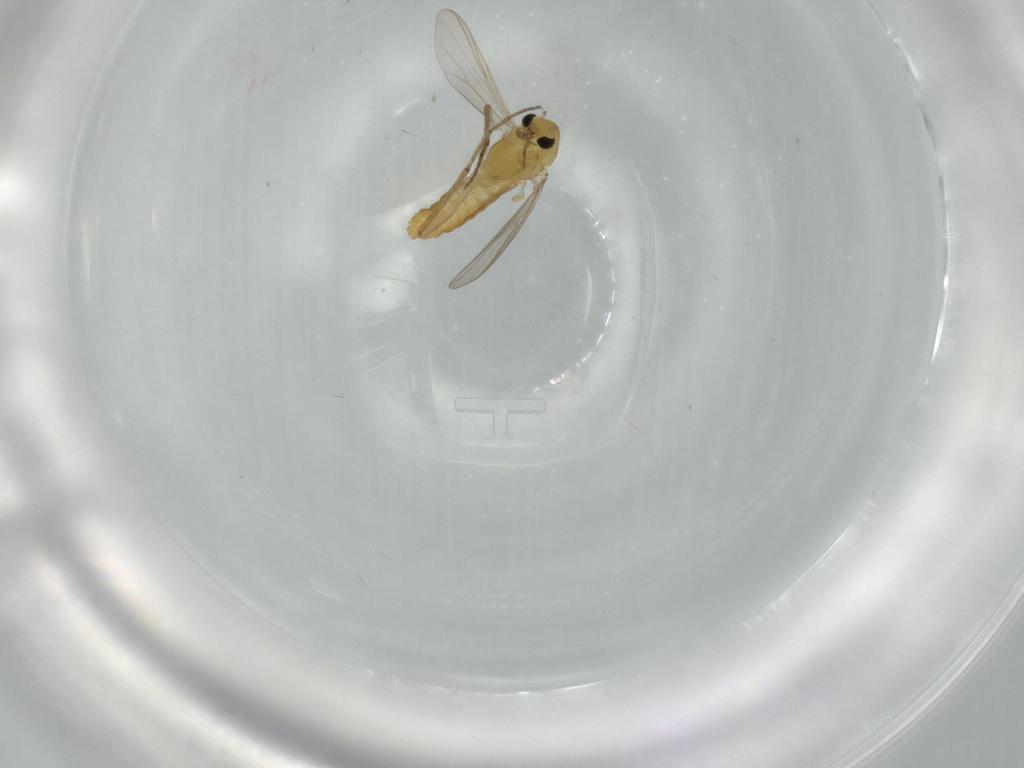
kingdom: Animalia
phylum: Arthropoda
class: Insecta
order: Diptera
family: Chironomidae
